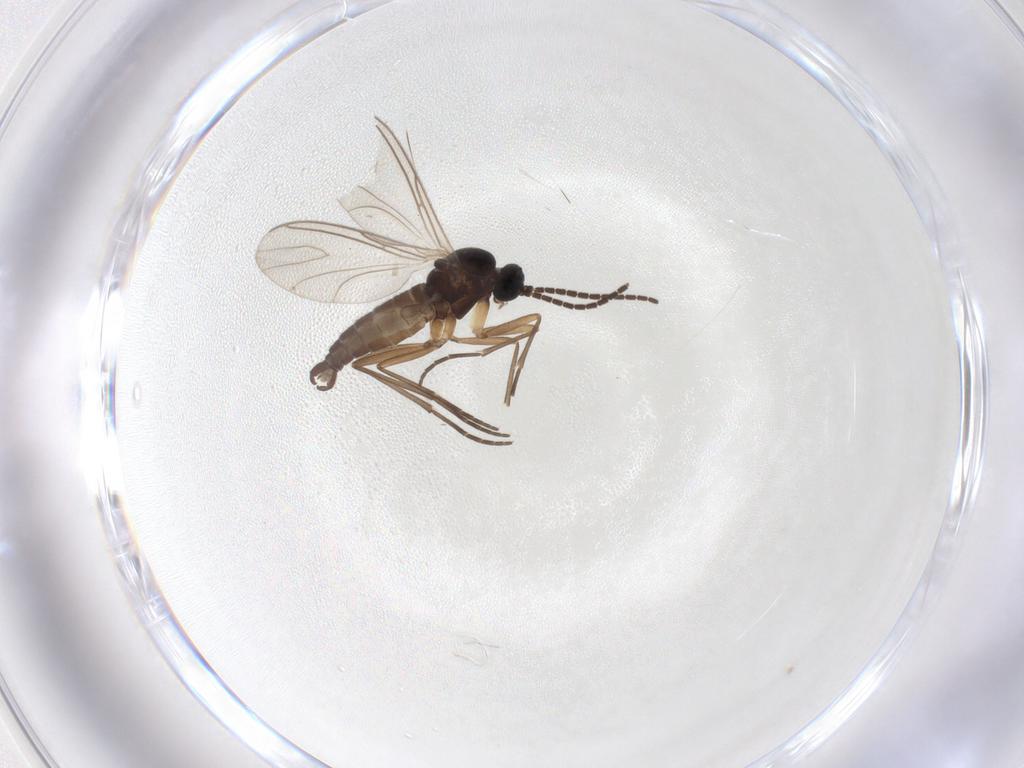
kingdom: Animalia
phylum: Arthropoda
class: Insecta
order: Diptera
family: Sciaridae
